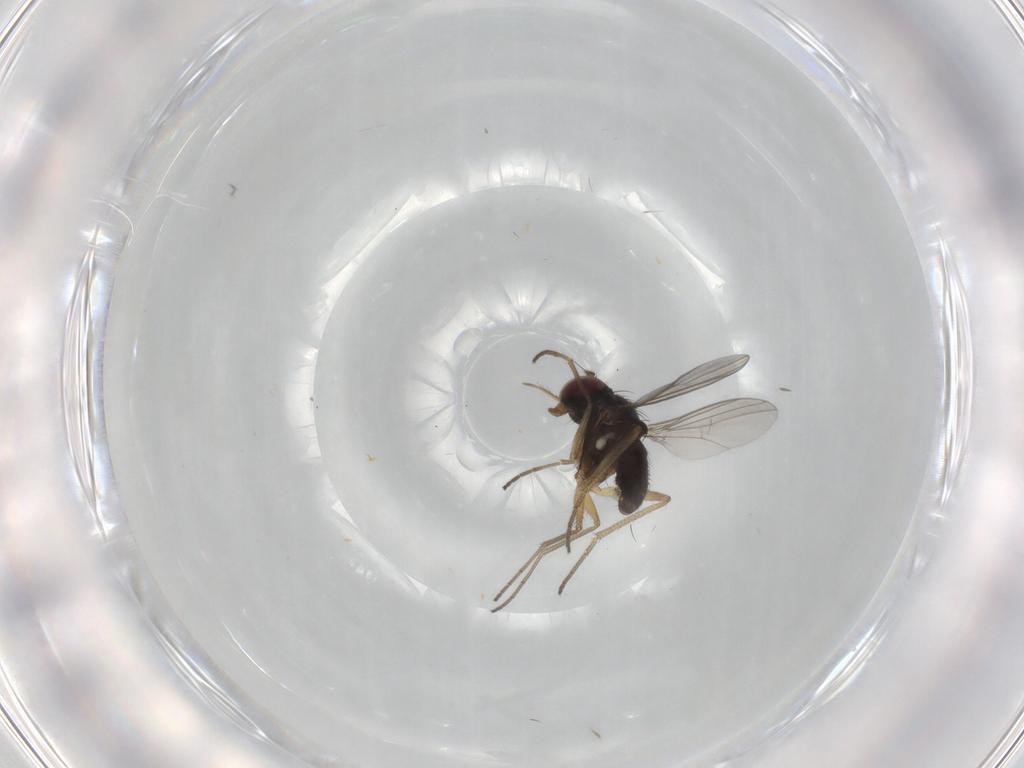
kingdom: Animalia
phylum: Arthropoda
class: Insecta
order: Diptera
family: Dolichopodidae
